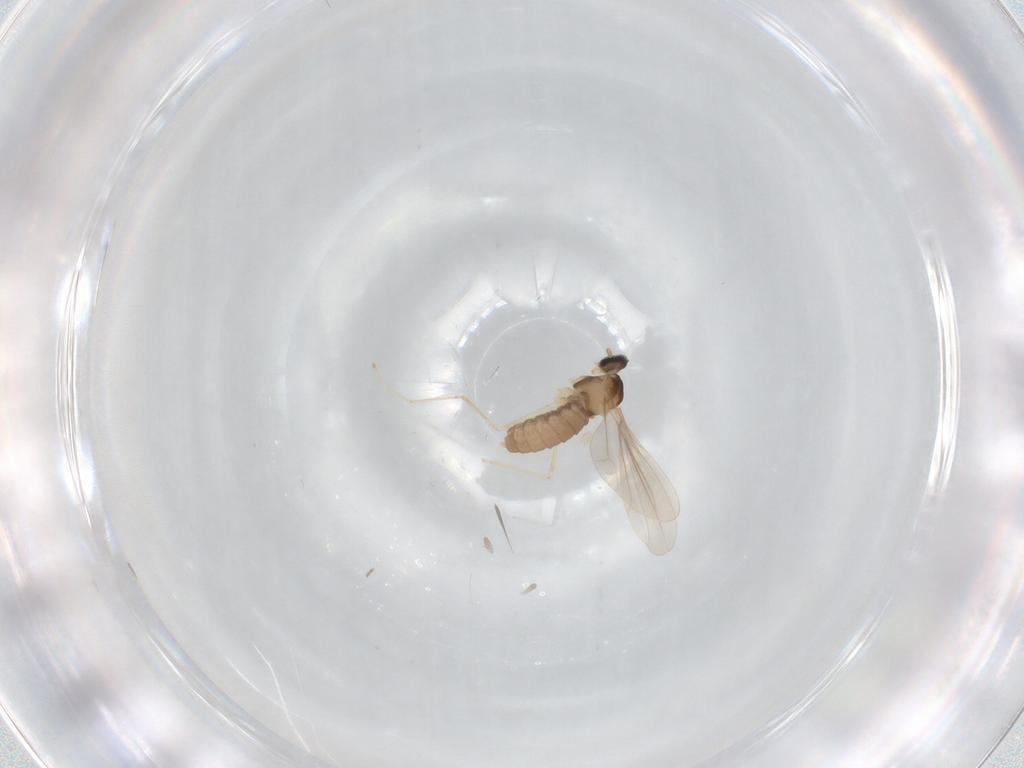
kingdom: Animalia
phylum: Arthropoda
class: Insecta
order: Diptera
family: Cecidomyiidae
